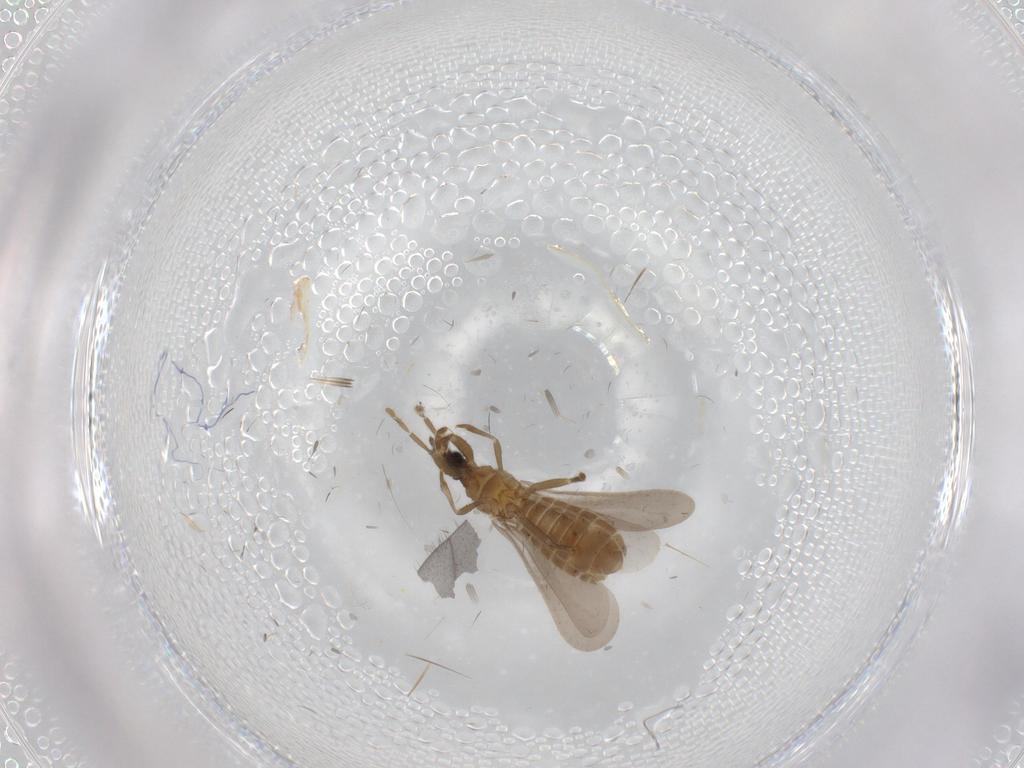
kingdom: Animalia
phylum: Arthropoda
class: Insecta
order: Hemiptera
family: Enicocephalidae
